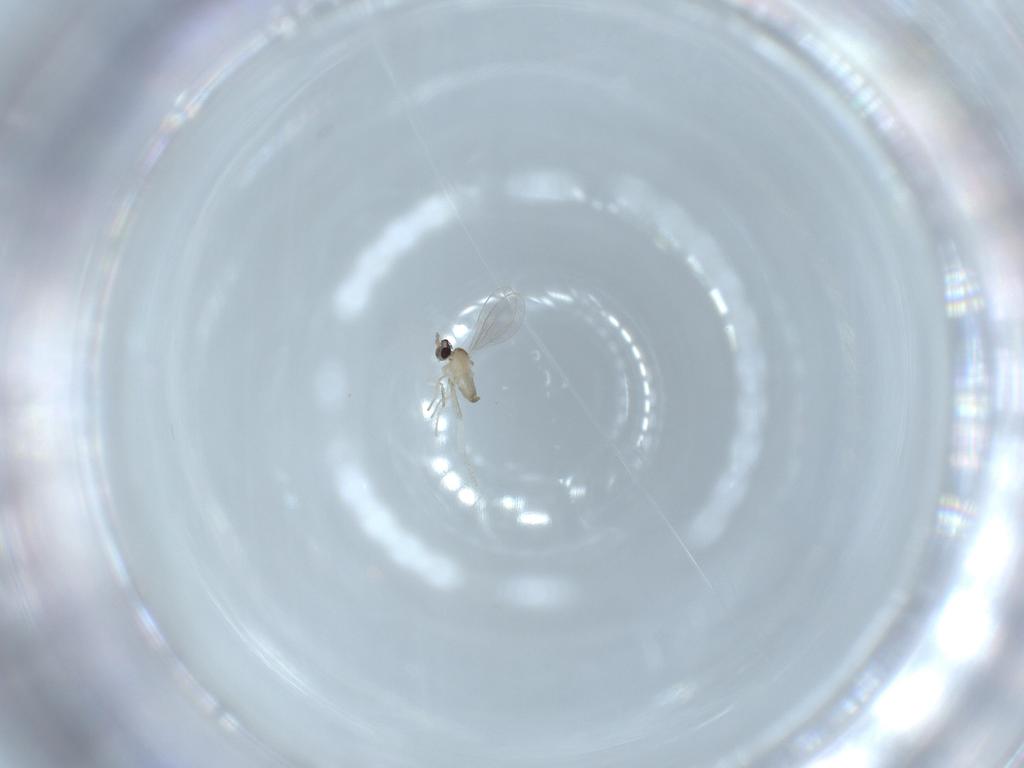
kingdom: Animalia
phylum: Arthropoda
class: Insecta
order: Diptera
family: Cecidomyiidae
